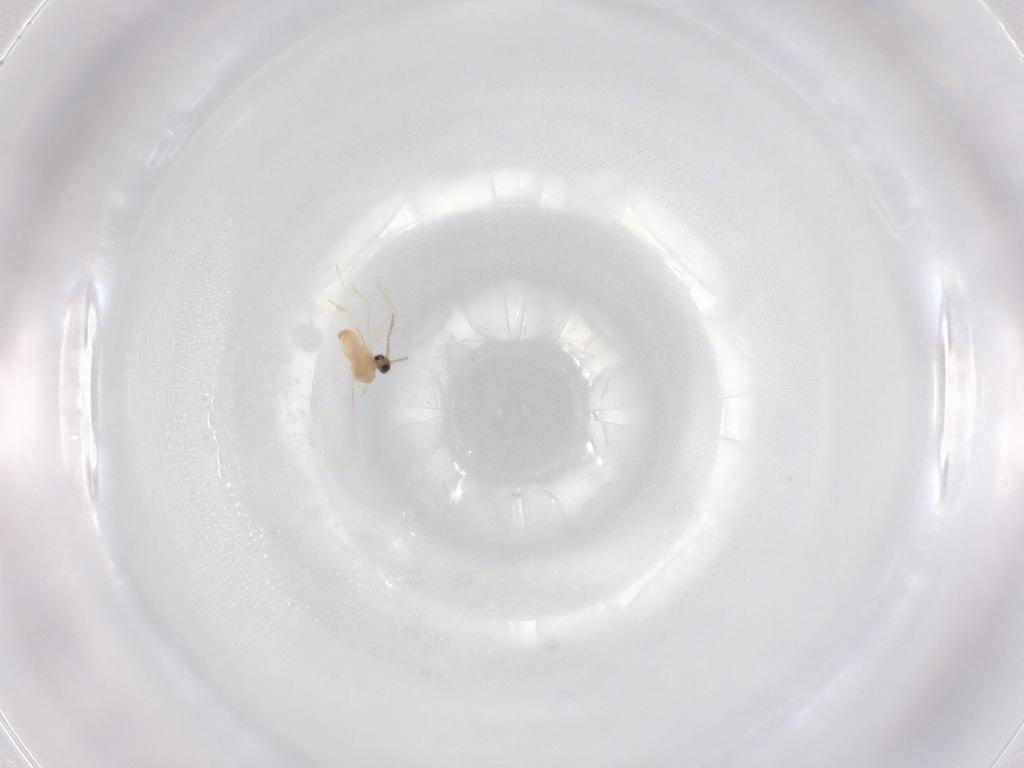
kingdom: Animalia
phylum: Arthropoda
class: Insecta
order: Diptera
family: Cecidomyiidae
